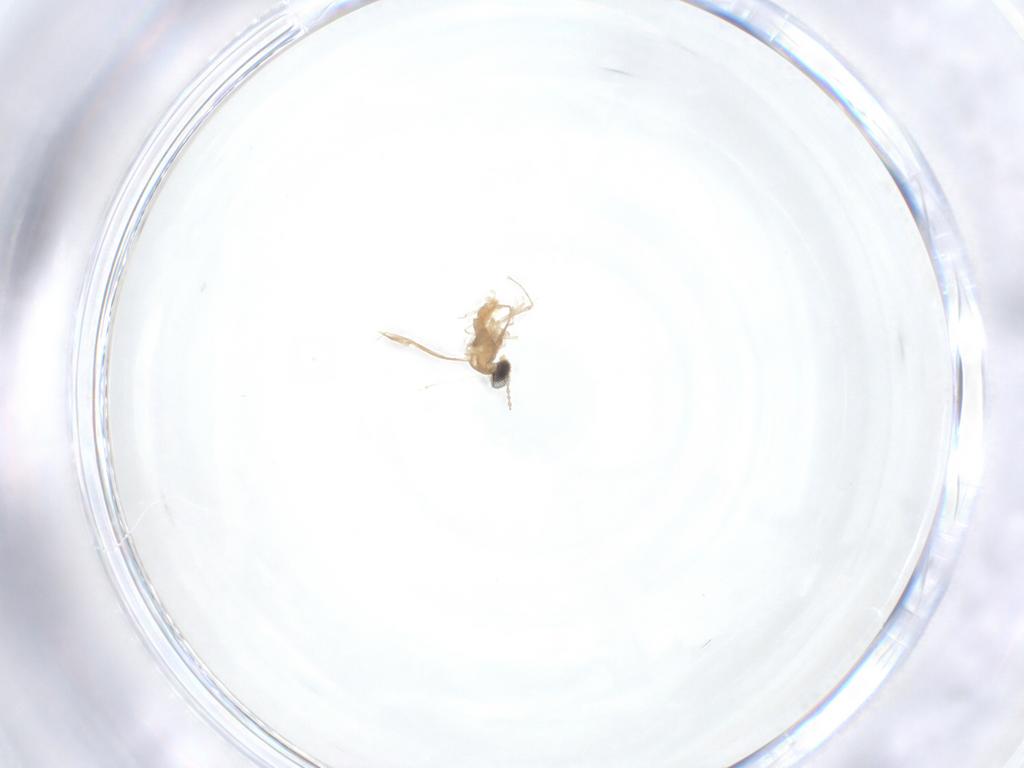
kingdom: Animalia
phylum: Arthropoda
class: Insecta
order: Diptera
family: Cecidomyiidae
